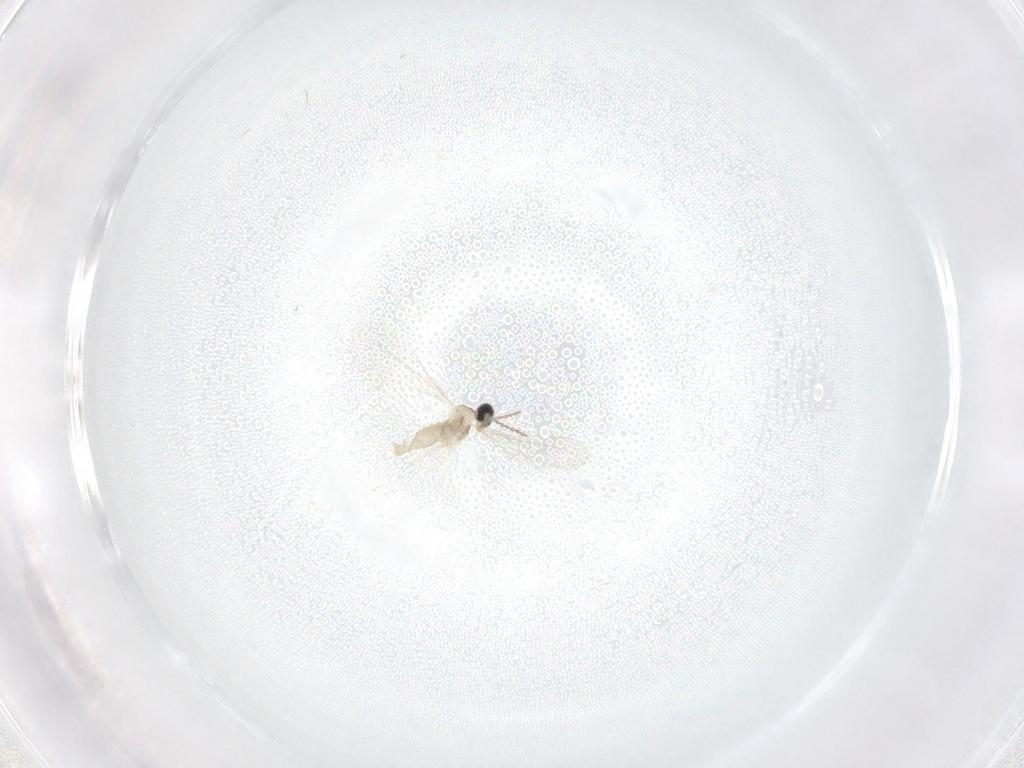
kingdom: Animalia
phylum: Arthropoda
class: Insecta
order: Diptera
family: Cecidomyiidae
